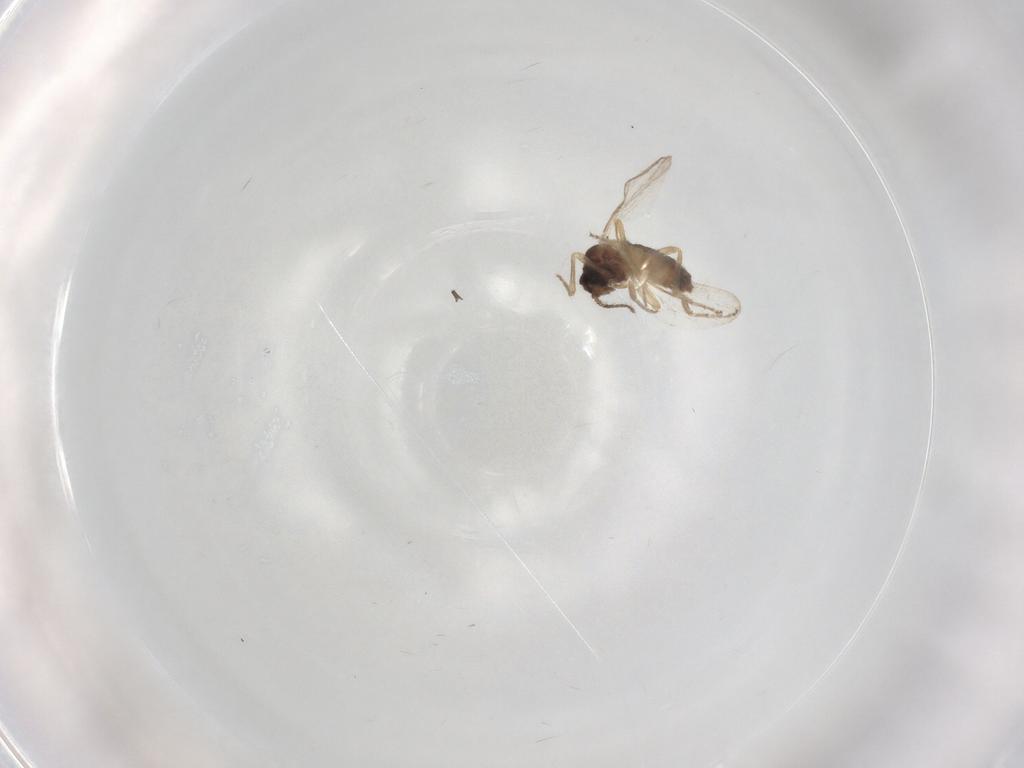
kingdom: Animalia
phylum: Arthropoda
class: Insecta
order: Diptera
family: Ceratopogonidae
